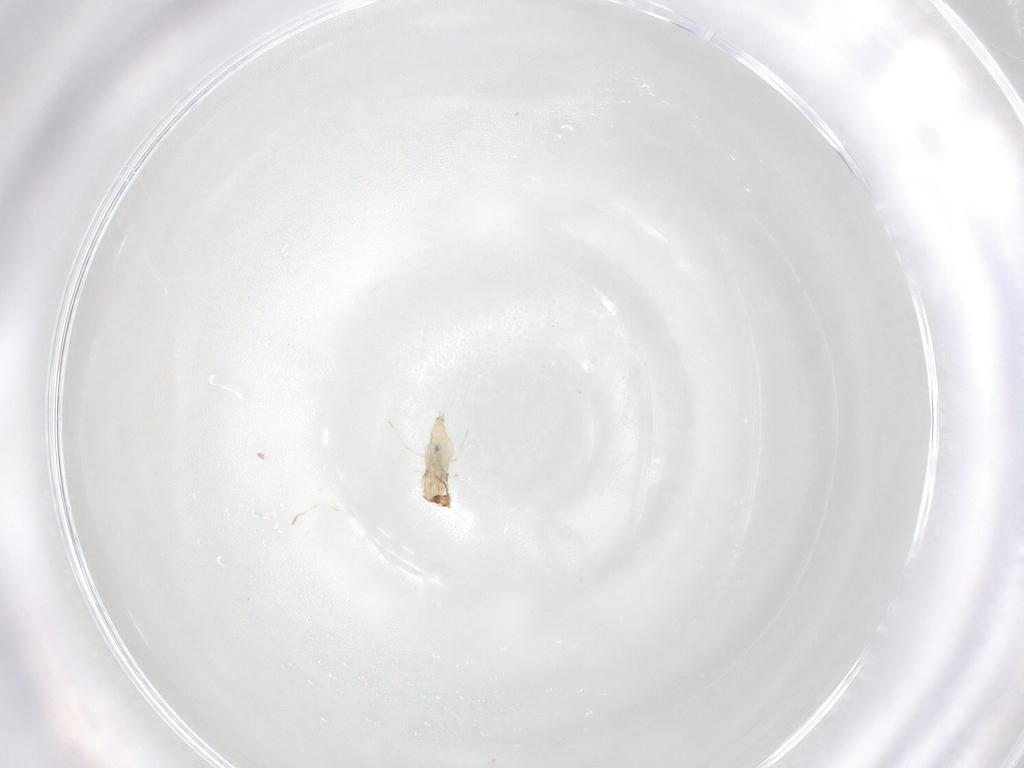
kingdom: Animalia
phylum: Arthropoda
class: Insecta
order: Diptera
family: Cecidomyiidae
